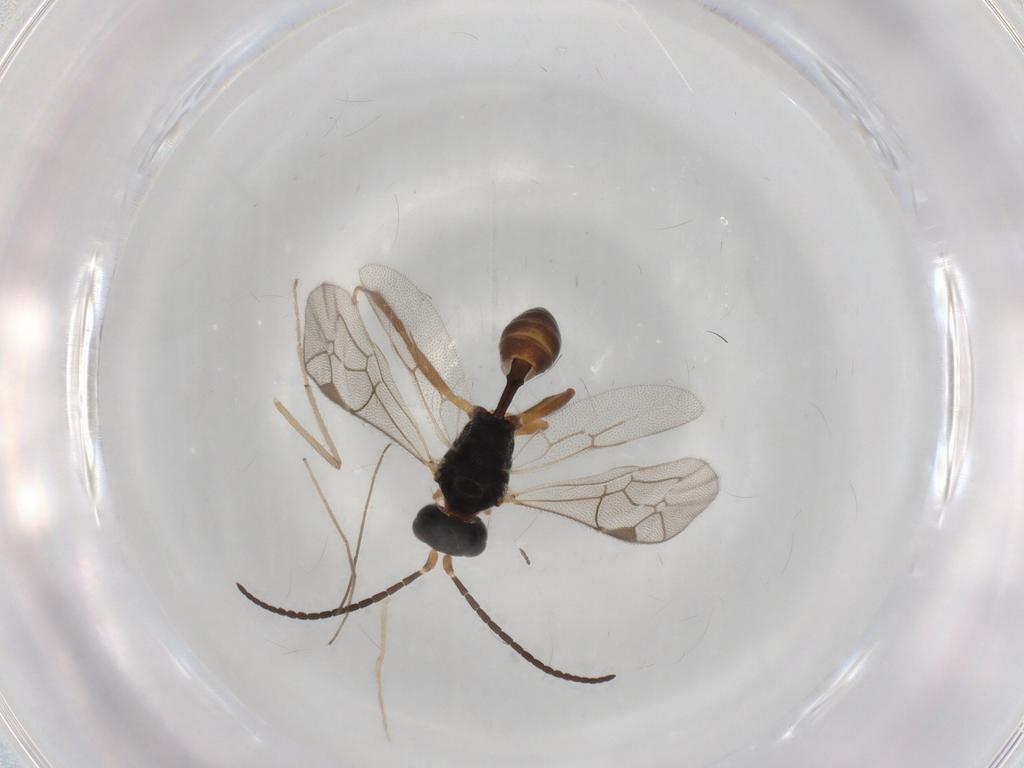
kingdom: Animalia
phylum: Arthropoda
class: Insecta
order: Hymenoptera
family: Ichneumonidae
